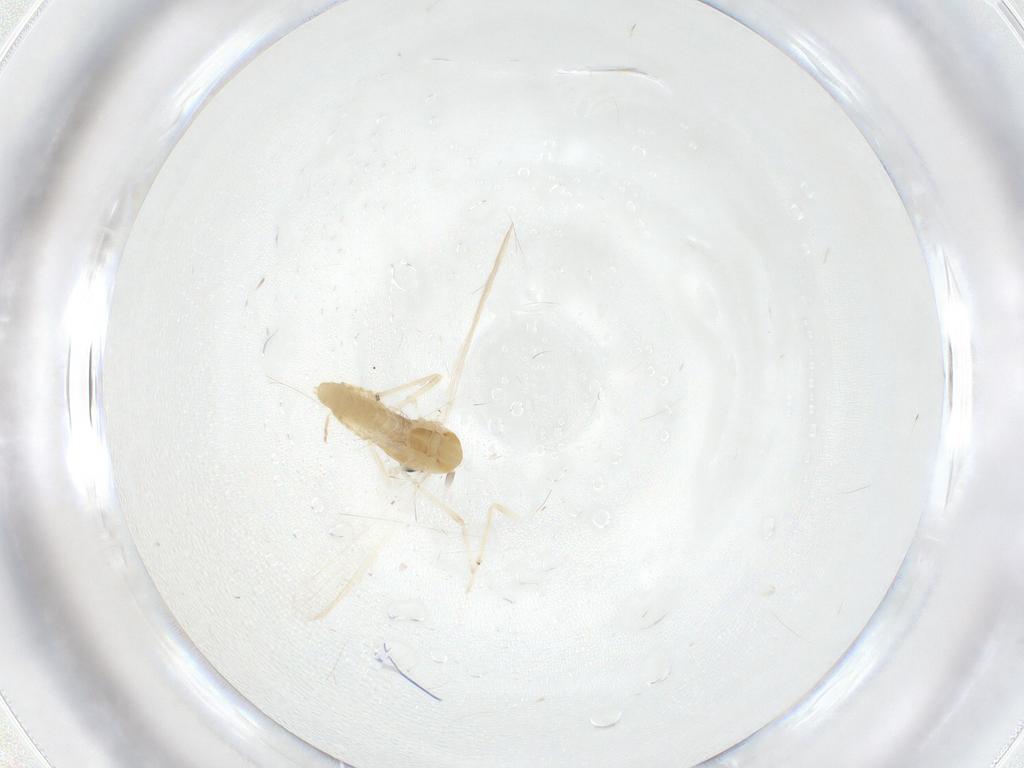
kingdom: Animalia
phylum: Arthropoda
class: Insecta
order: Diptera
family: Chironomidae
